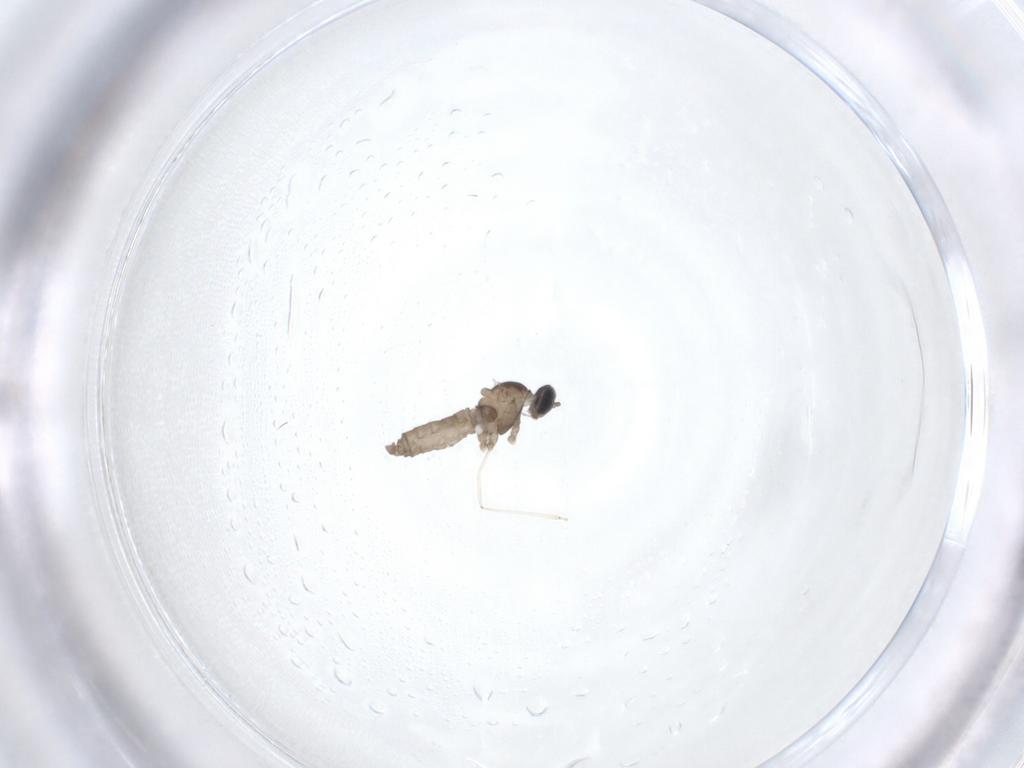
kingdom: Animalia
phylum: Arthropoda
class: Insecta
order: Diptera
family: Cecidomyiidae
